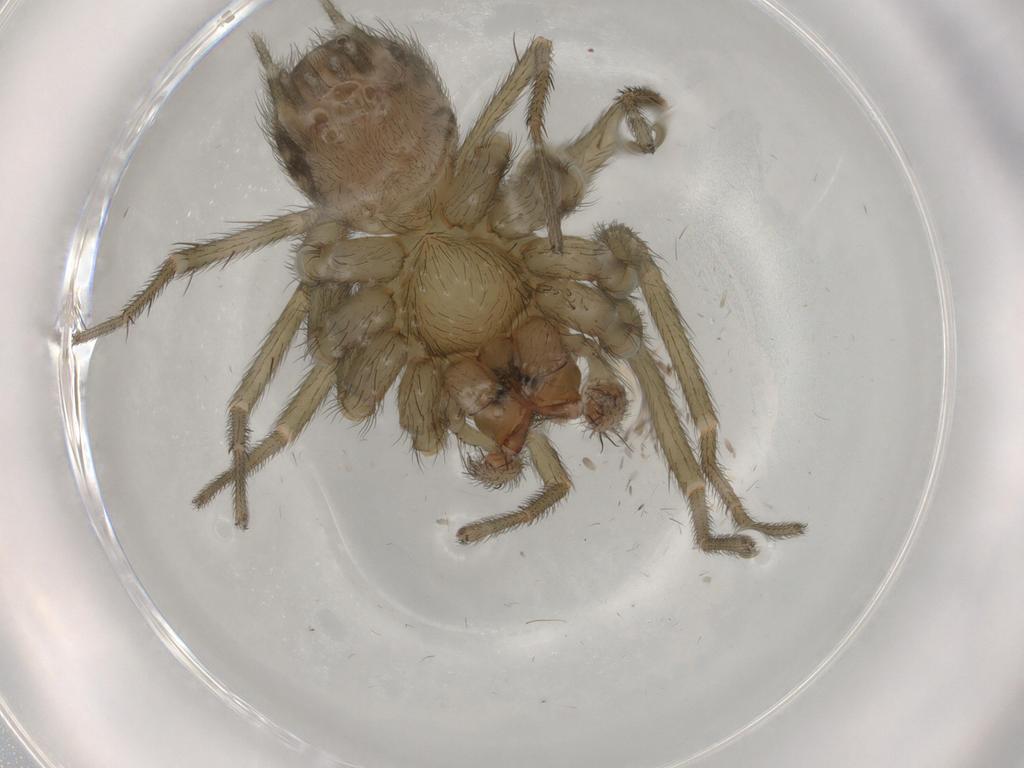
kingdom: Animalia
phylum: Arthropoda
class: Arachnida
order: Araneae
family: Hahniidae
